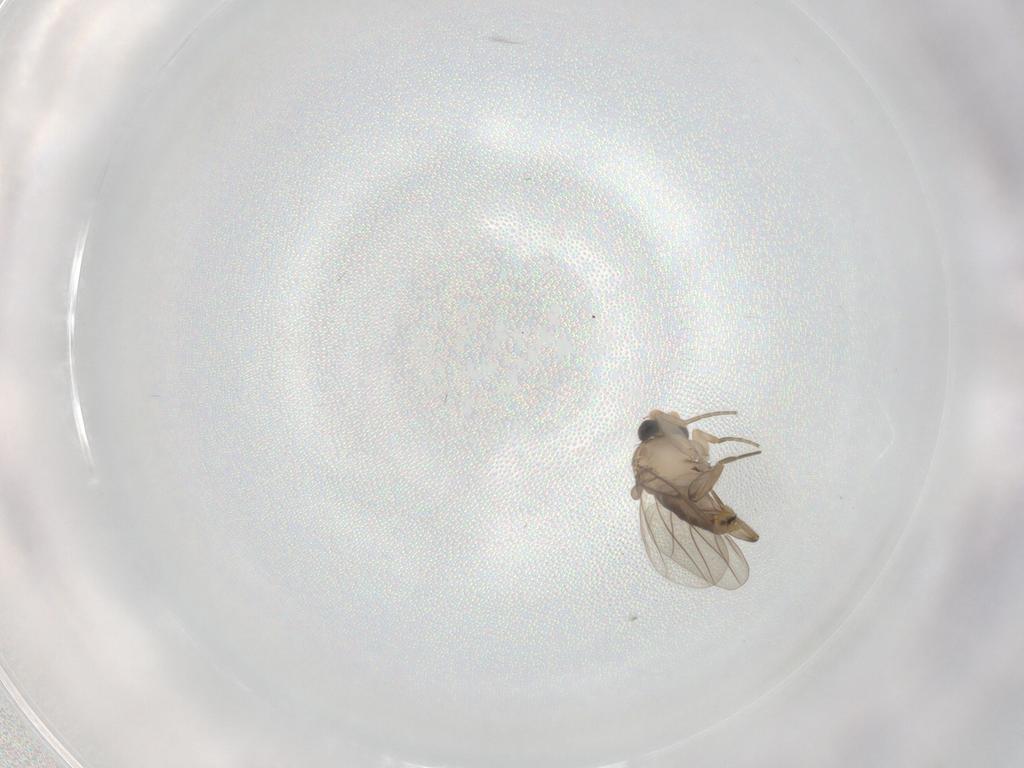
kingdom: Animalia
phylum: Arthropoda
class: Insecta
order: Diptera
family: Phoridae
